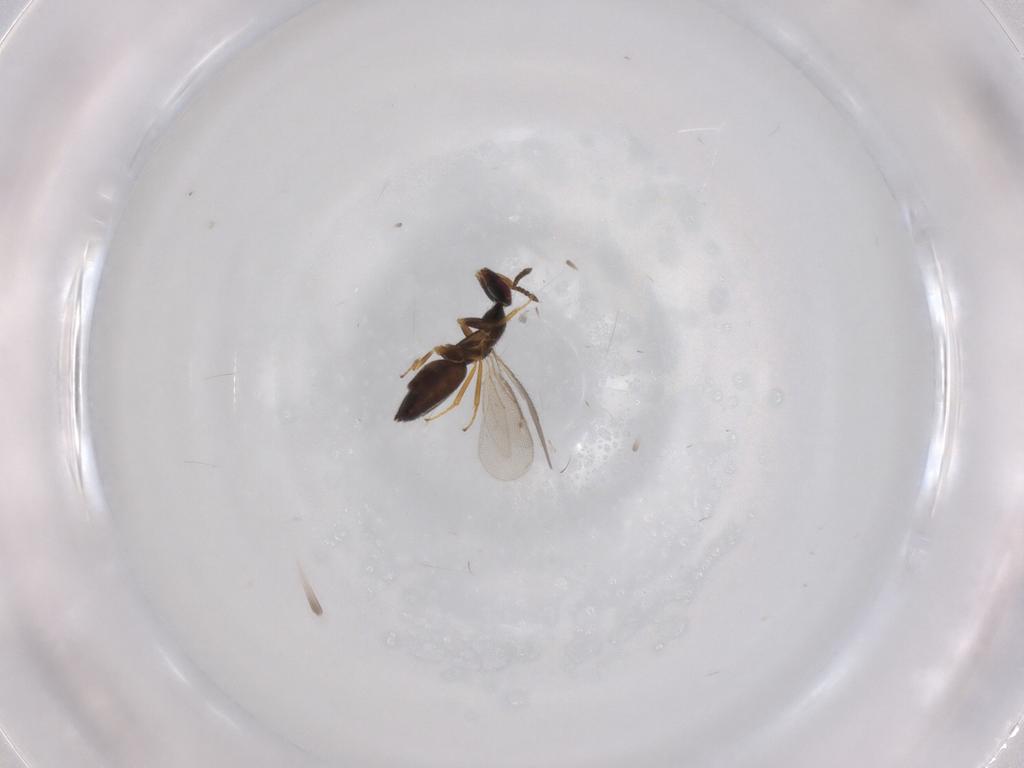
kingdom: Animalia
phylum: Arthropoda
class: Insecta
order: Hymenoptera
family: Eulophidae
